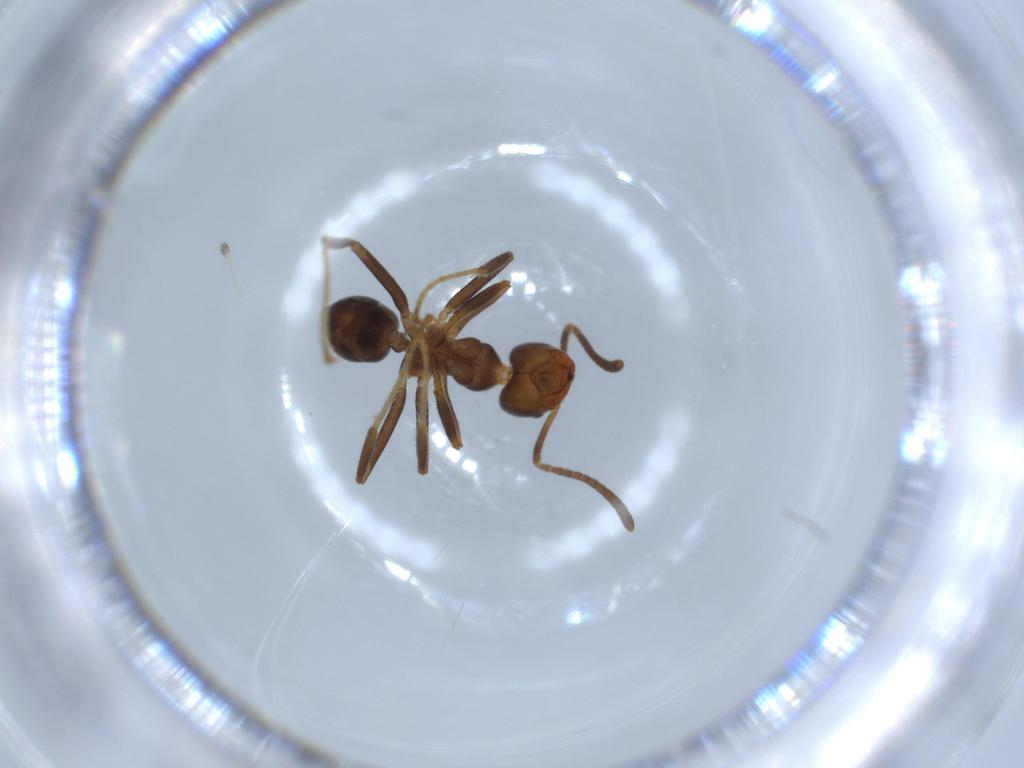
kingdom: Animalia
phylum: Arthropoda
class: Insecta
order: Hymenoptera
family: Formicidae
